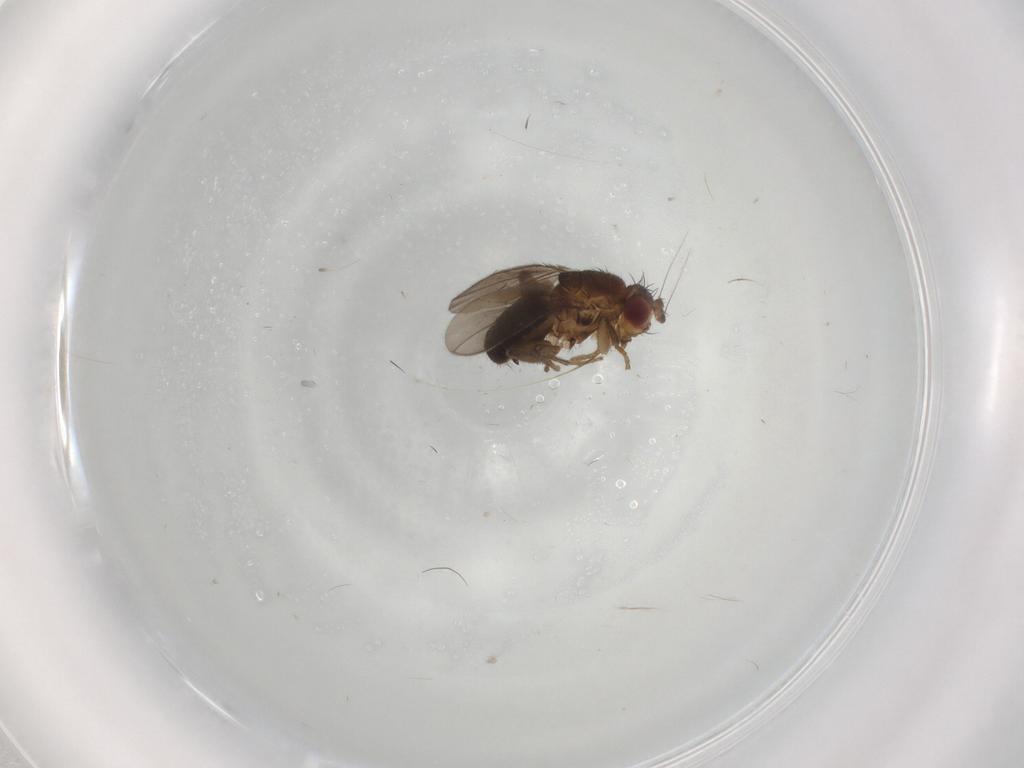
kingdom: Animalia
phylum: Arthropoda
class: Insecta
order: Diptera
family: Sphaeroceridae
